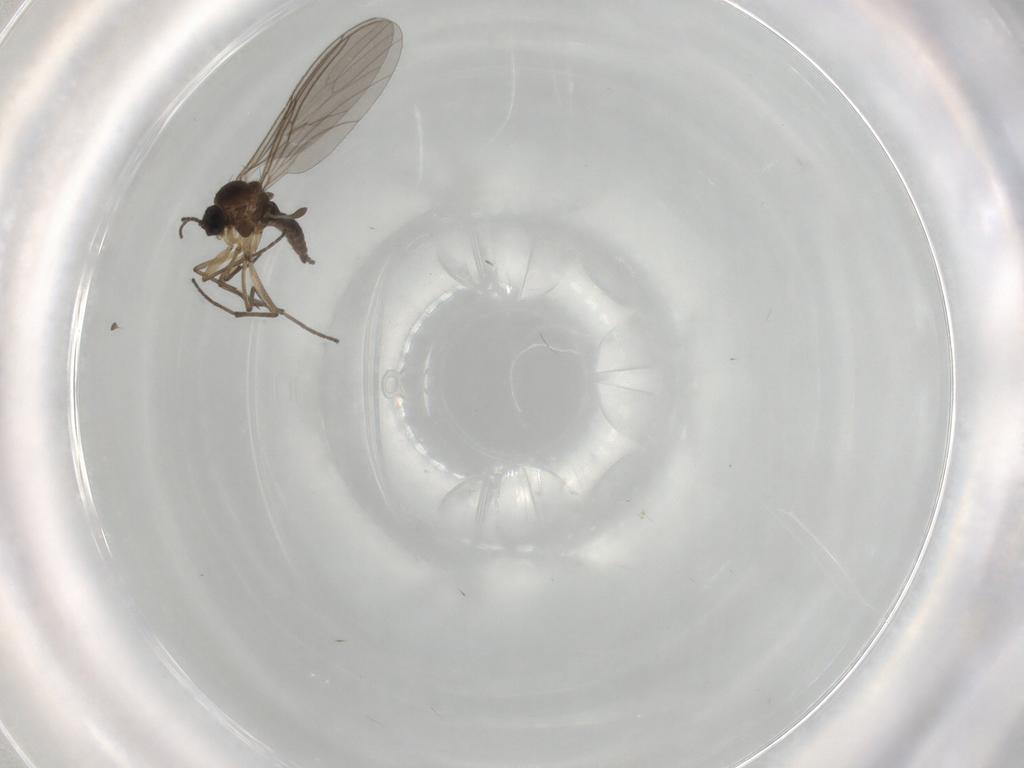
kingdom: Animalia
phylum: Arthropoda
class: Insecta
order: Diptera
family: Sciaridae
